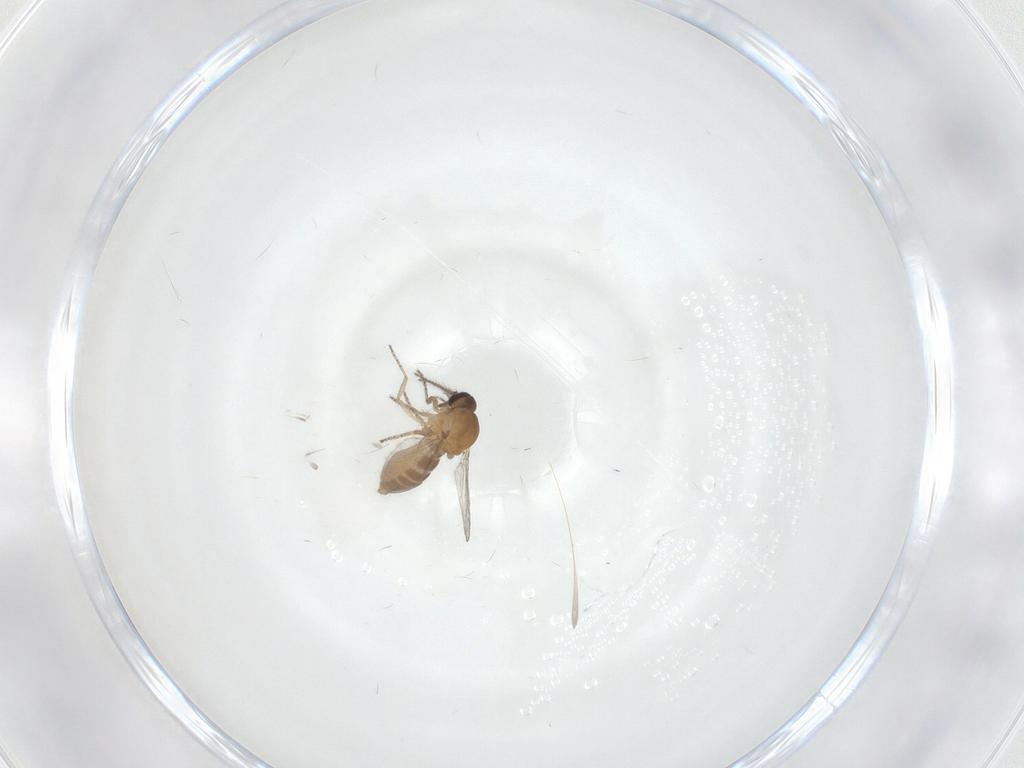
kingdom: Animalia
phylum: Arthropoda
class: Insecta
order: Diptera
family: Ceratopogonidae
